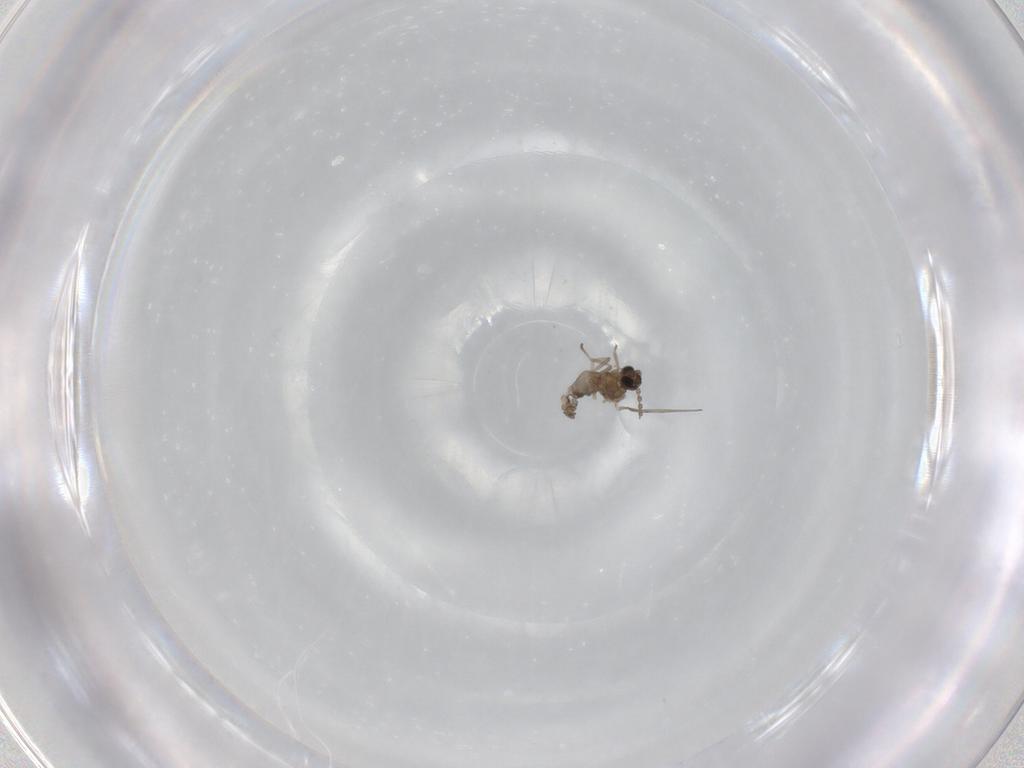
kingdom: Animalia
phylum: Arthropoda
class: Insecta
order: Diptera
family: Cecidomyiidae
